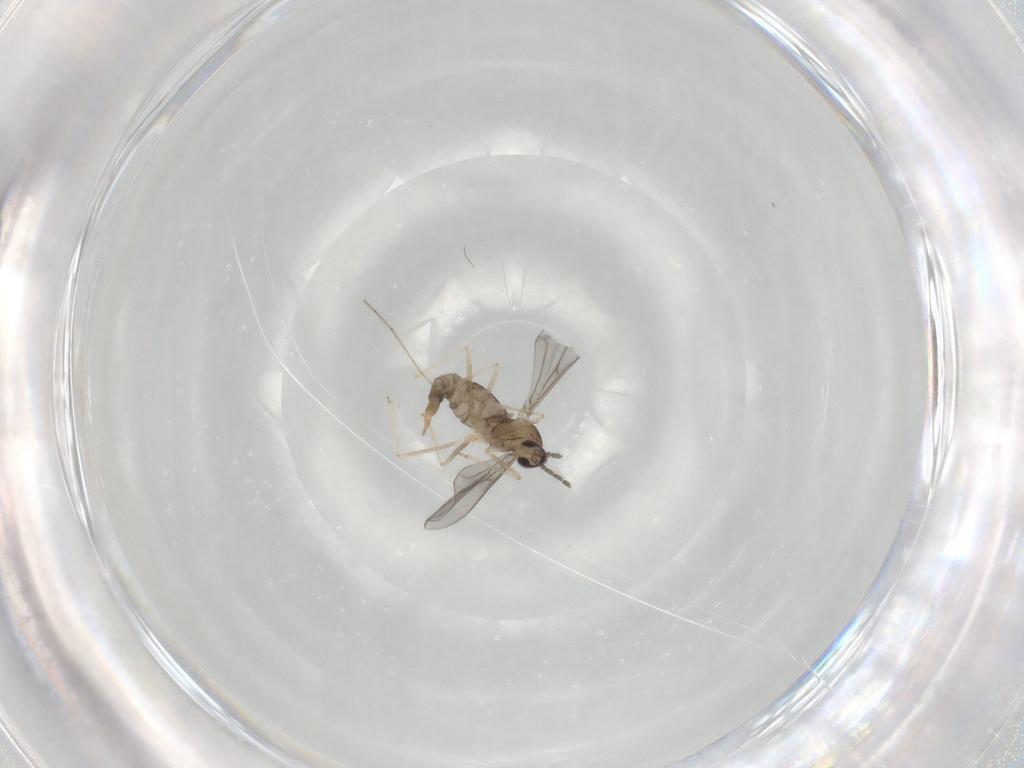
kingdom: Animalia
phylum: Arthropoda
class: Insecta
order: Diptera
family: Cecidomyiidae
